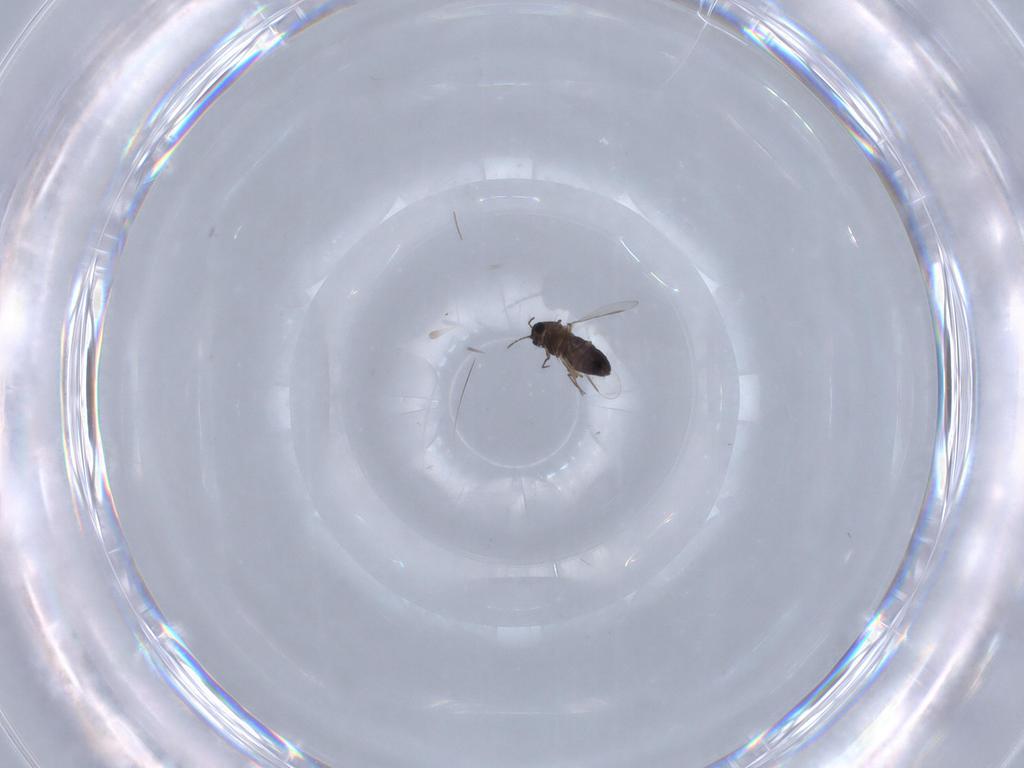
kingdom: Animalia
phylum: Arthropoda
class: Insecta
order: Diptera
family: Chironomidae
